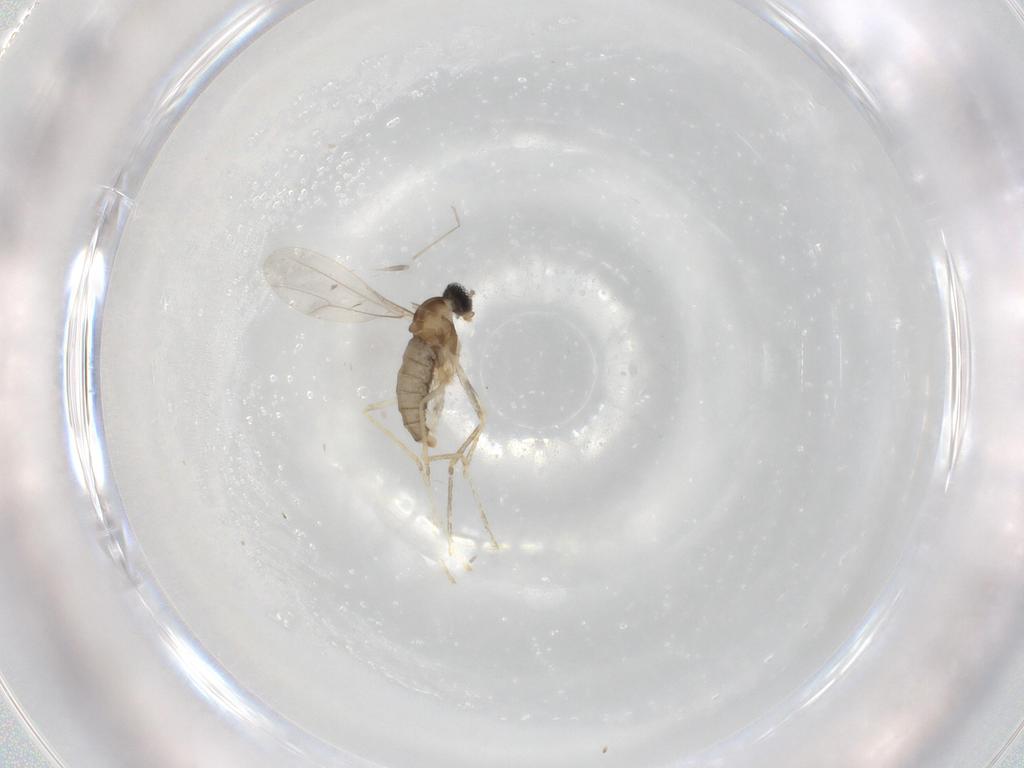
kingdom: Animalia
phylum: Arthropoda
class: Insecta
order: Diptera
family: Cecidomyiidae
